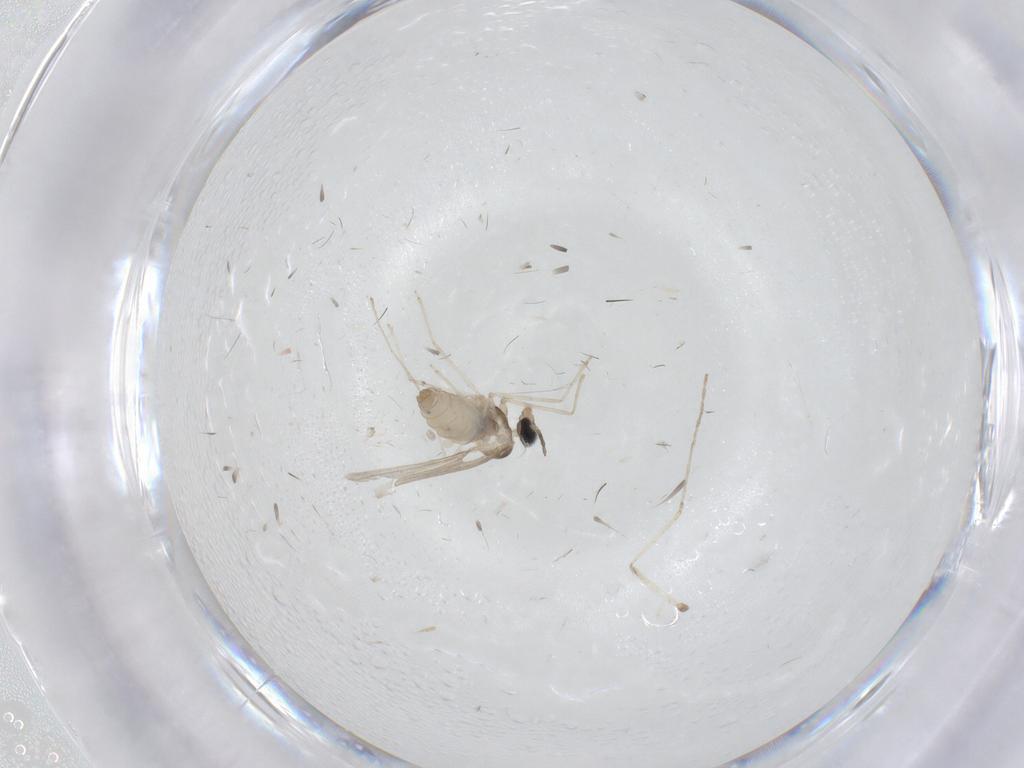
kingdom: Animalia
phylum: Arthropoda
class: Insecta
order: Diptera
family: Cecidomyiidae
